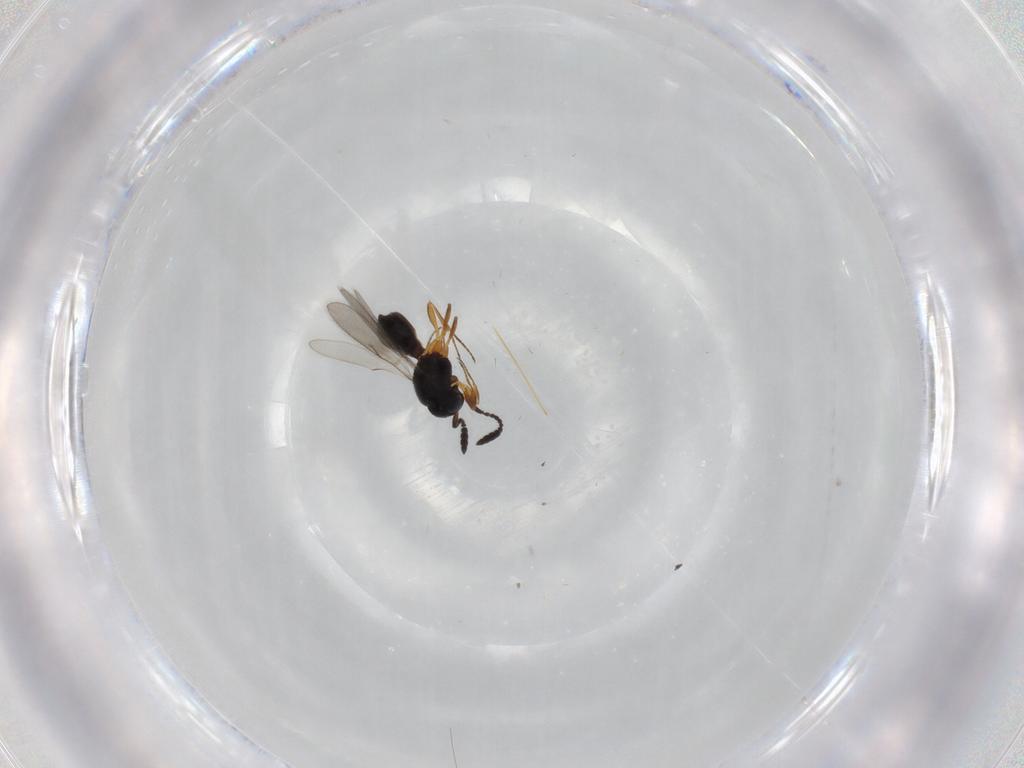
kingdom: Animalia
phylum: Arthropoda
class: Insecta
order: Hymenoptera
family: Scelionidae
